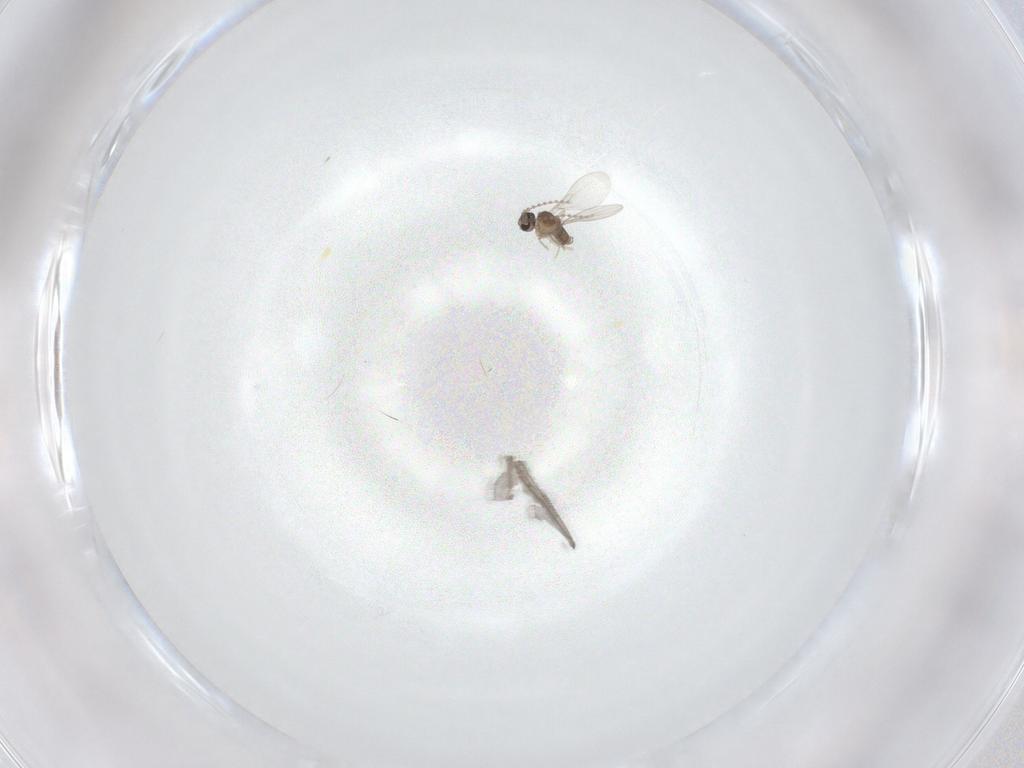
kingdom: Animalia
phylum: Arthropoda
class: Insecta
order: Diptera
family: Cecidomyiidae
